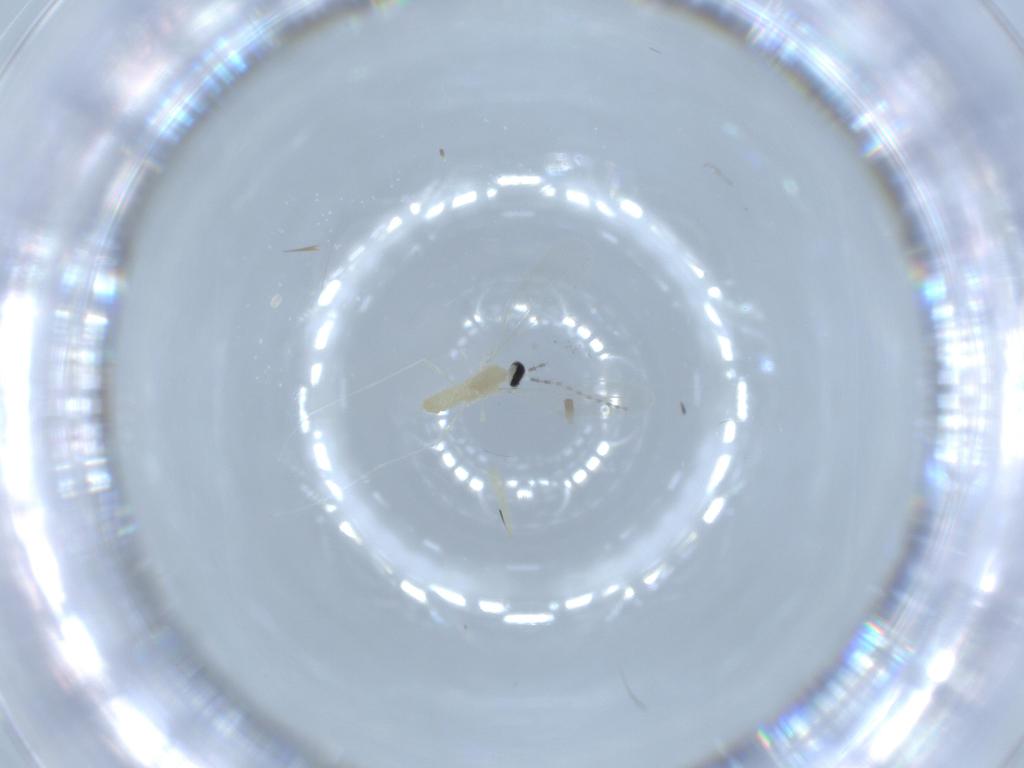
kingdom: Animalia
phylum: Arthropoda
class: Insecta
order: Diptera
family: Cecidomyiidae
